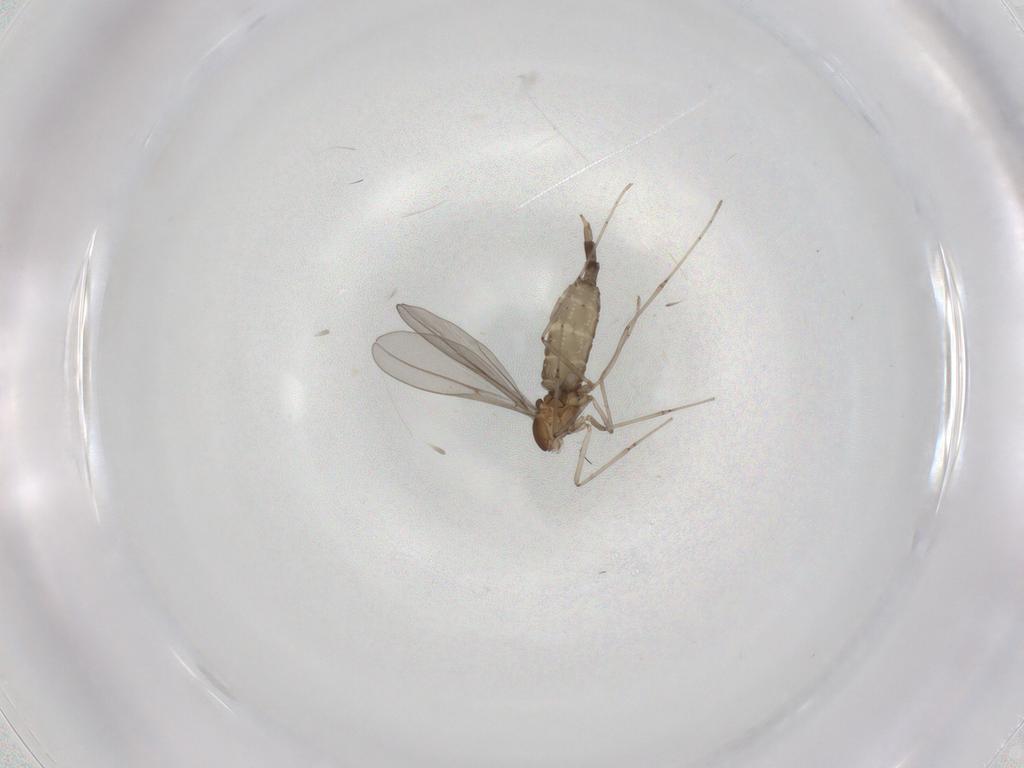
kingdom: Animalia
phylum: Arthropoda
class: Insecta
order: Diptera
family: Cecidomyiidae
